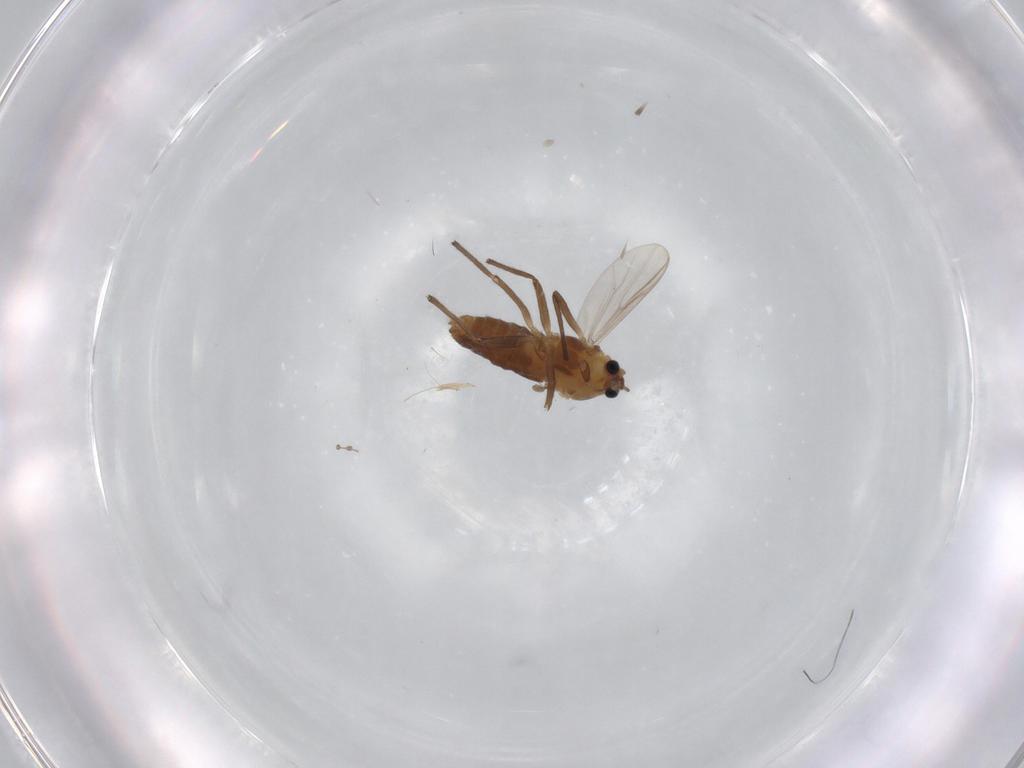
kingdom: Animalia
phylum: Arthropoda
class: Insecta
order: Diptera
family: Chironomidae
